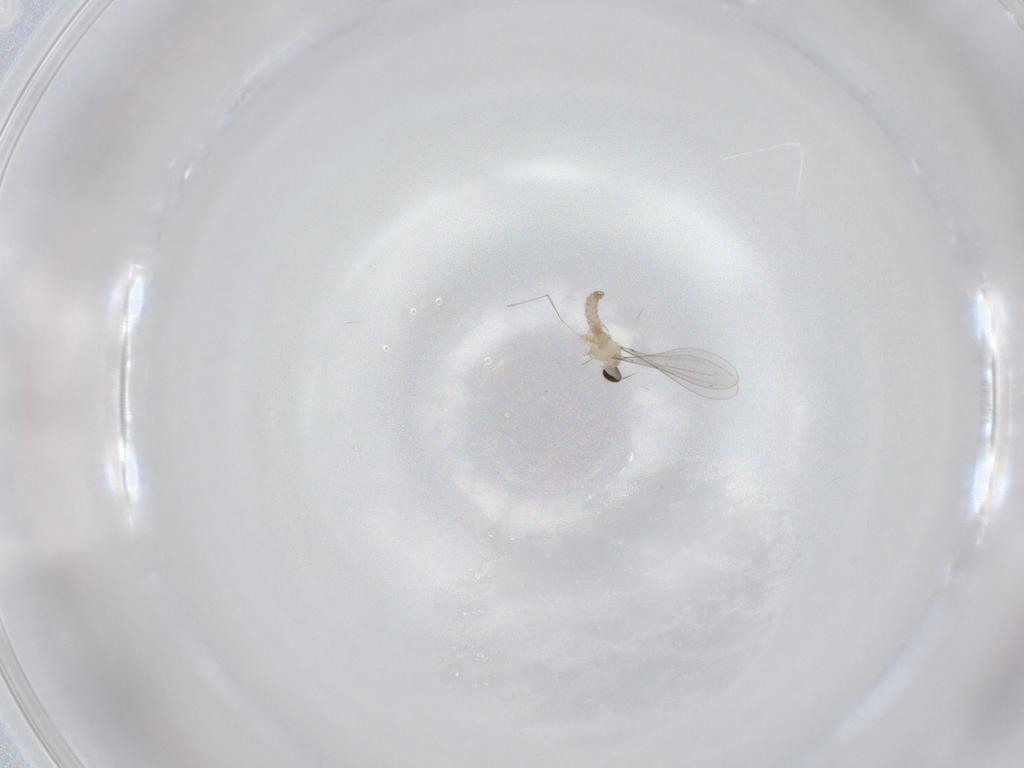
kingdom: Animalia
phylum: Arthropoda
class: Insecta
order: Diptera
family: Cecidomyiidae
